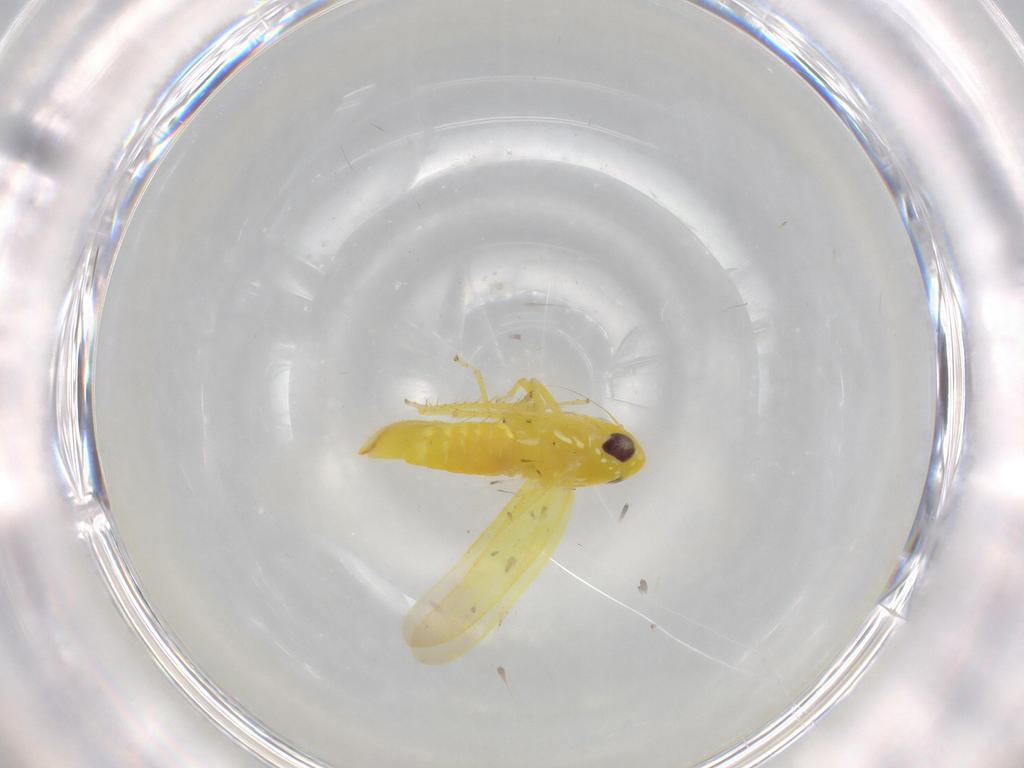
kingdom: Animalia
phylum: Arthropoda
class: Insecta
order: Hemiptera
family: Cicadellidae
